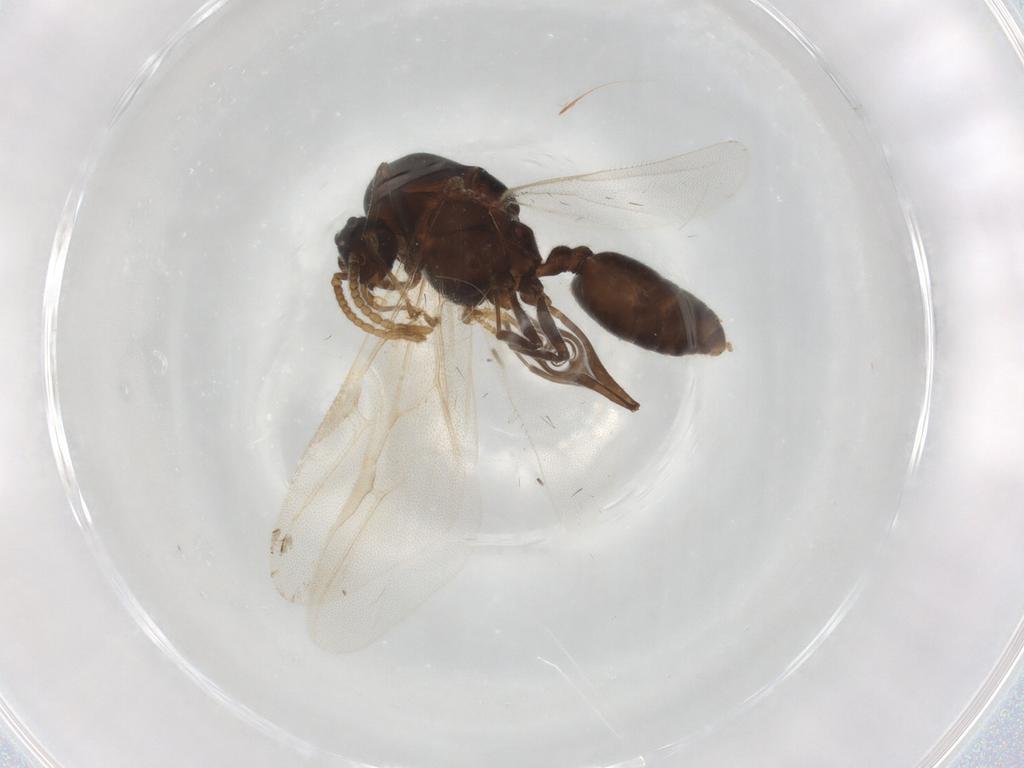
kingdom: Animalia
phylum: Arthropoda
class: Insecta
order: Hymenoptera
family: Formicidae
